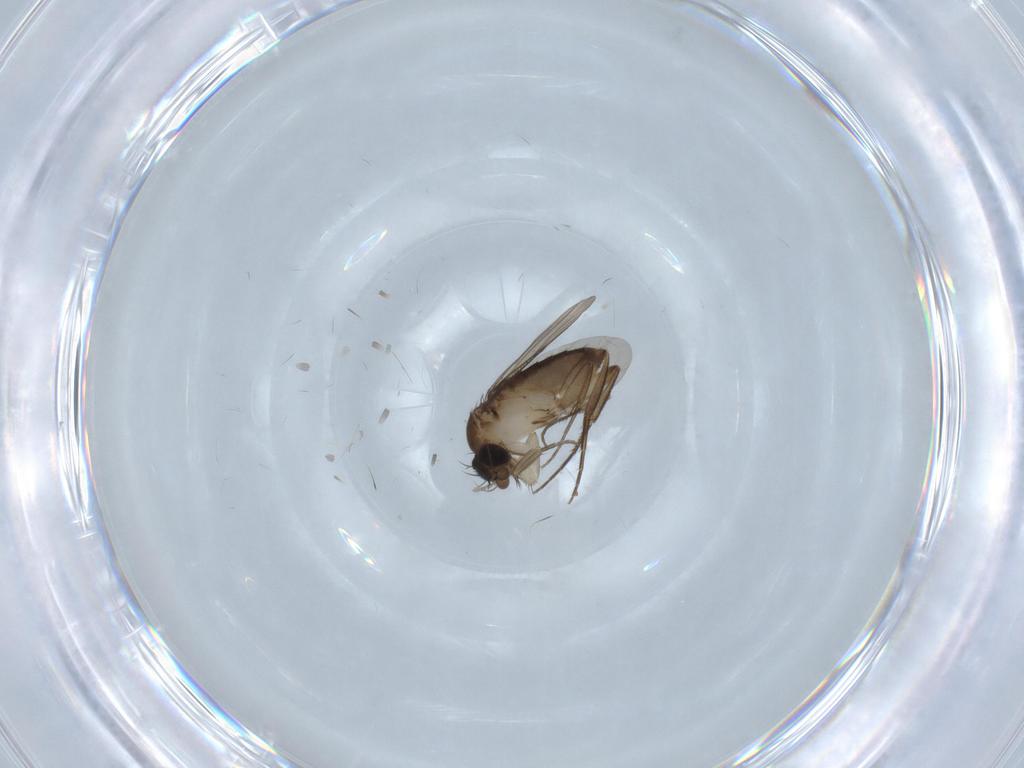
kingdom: Animalia
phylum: Arthropoda
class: Insecta
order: Diptera
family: Phoridae
